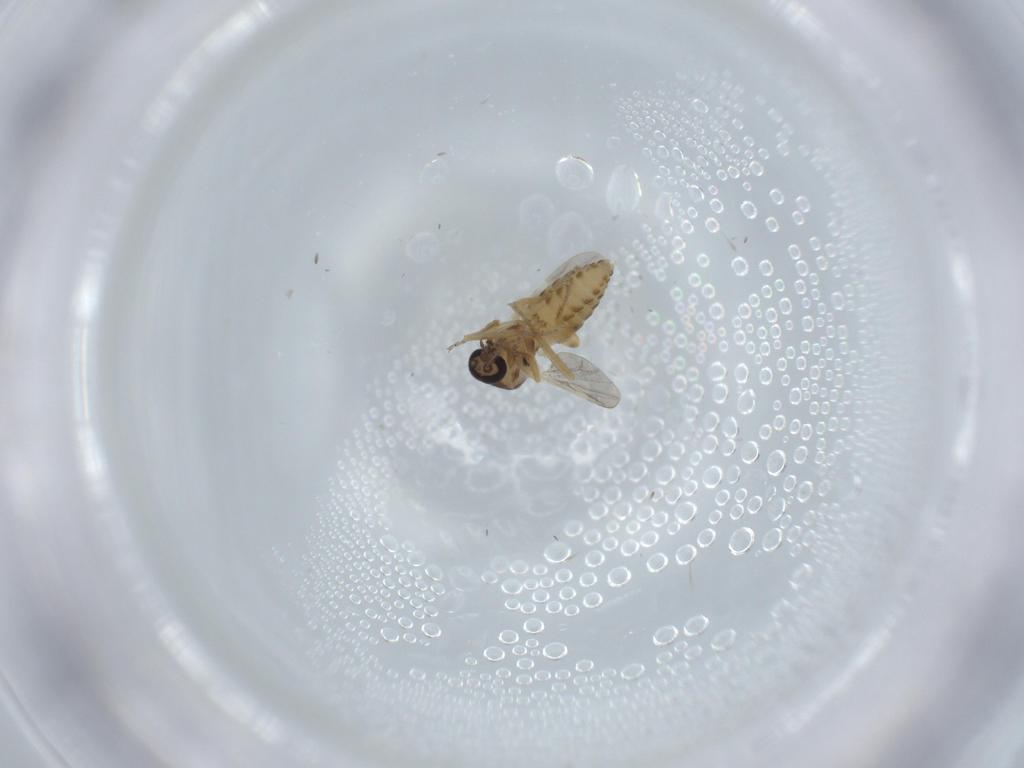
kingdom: Animalia
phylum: Arthropoda
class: Insecta
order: Diptera
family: Ceratopogonidae
